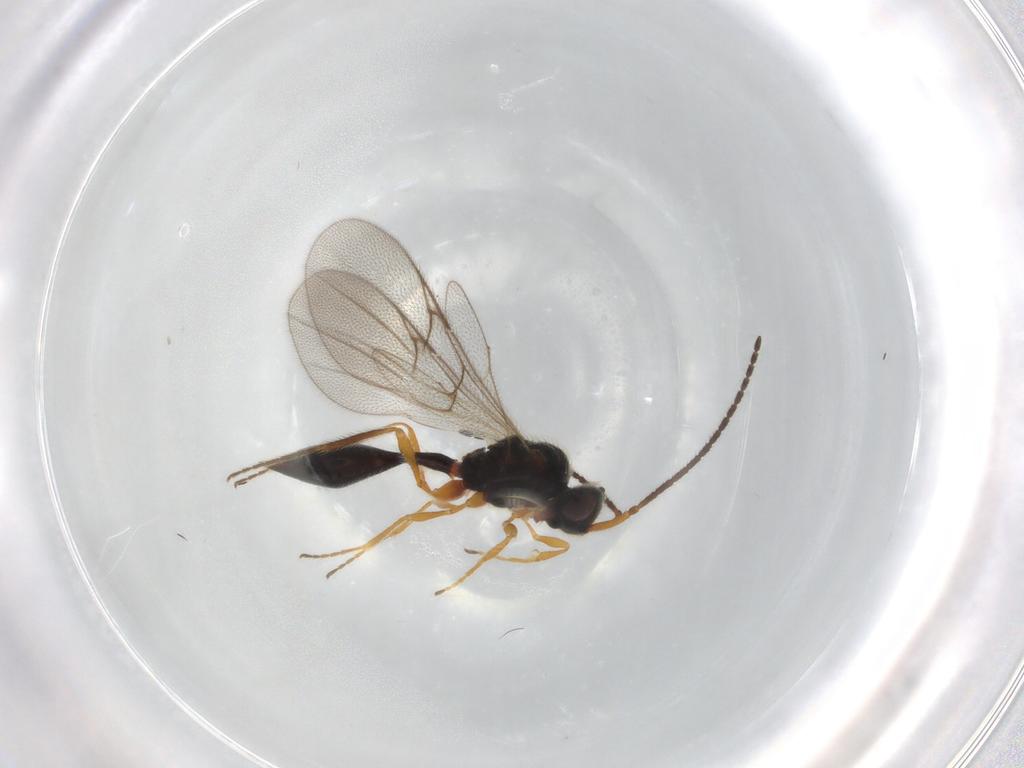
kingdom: Animalia
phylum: Arthropoda
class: Insecta
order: Hymenoptera
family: Diapriidae
